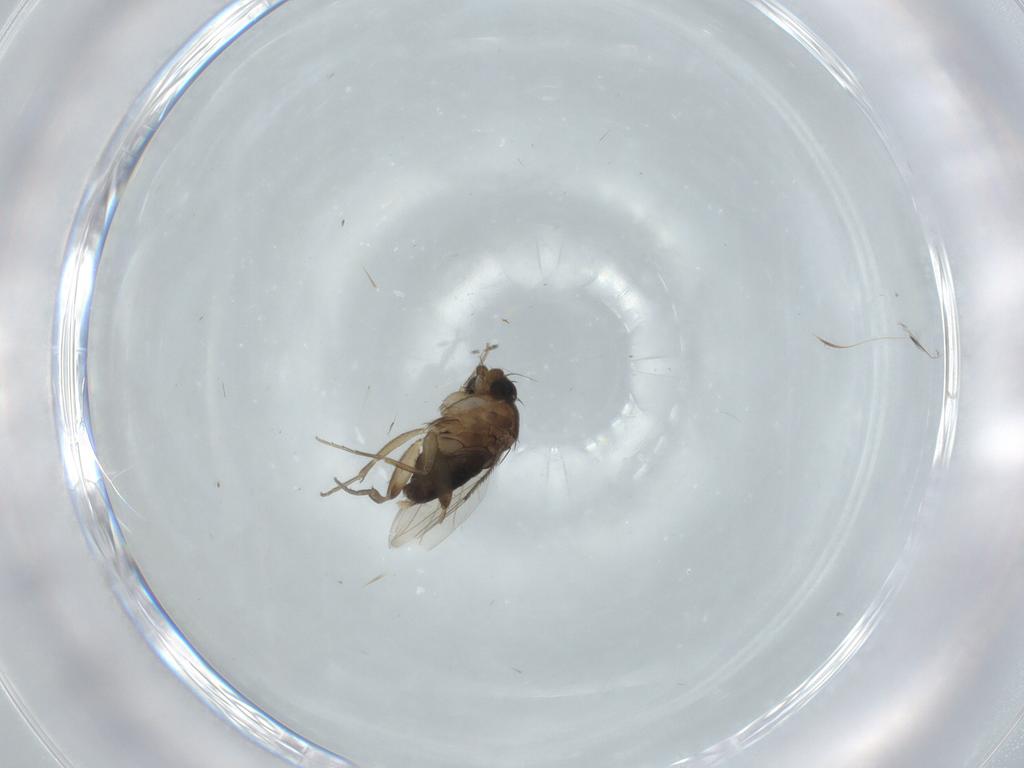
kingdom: Animalia
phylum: Arthropoda
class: Insecta
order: Diptera
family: Phoridae
